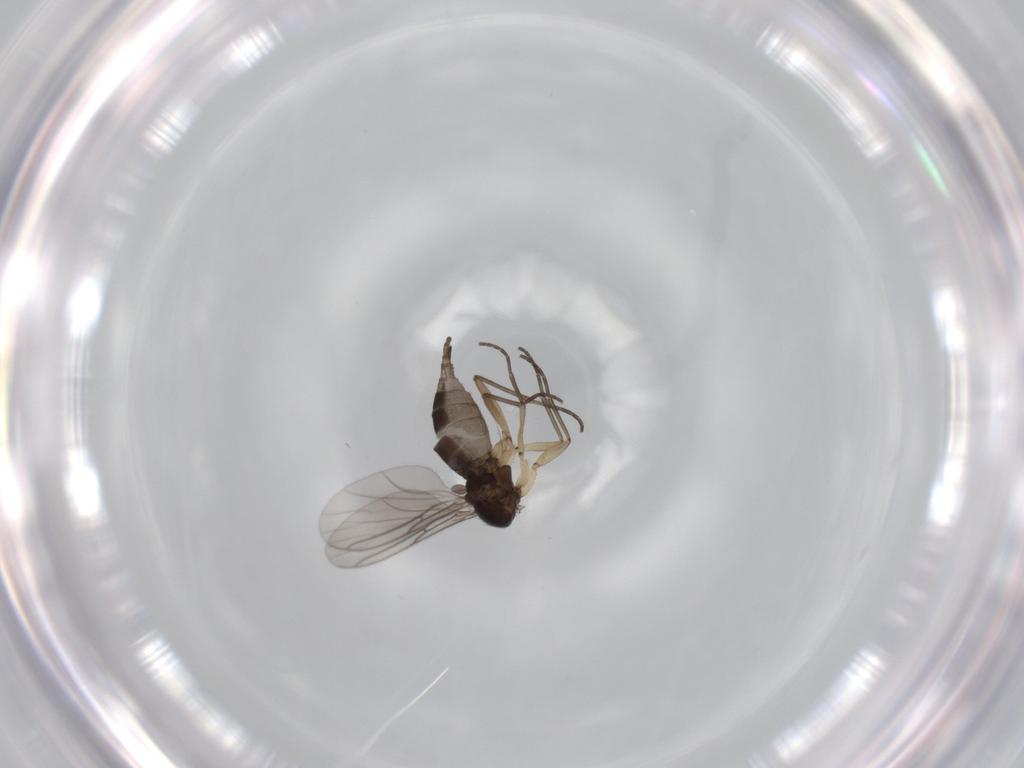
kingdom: Animalia
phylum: Arthropoda
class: Insecta
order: Diptera
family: Sciaridae
